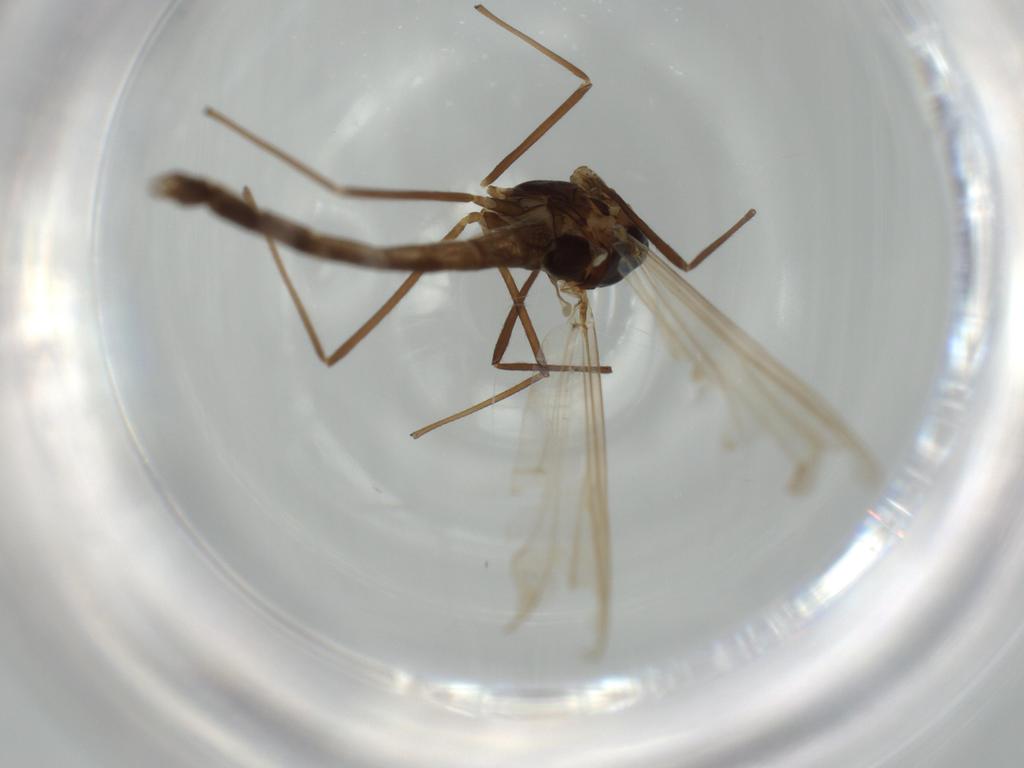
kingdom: Animalia
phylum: Arthropoda
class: Insecta
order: Diptera
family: Chironomidae
